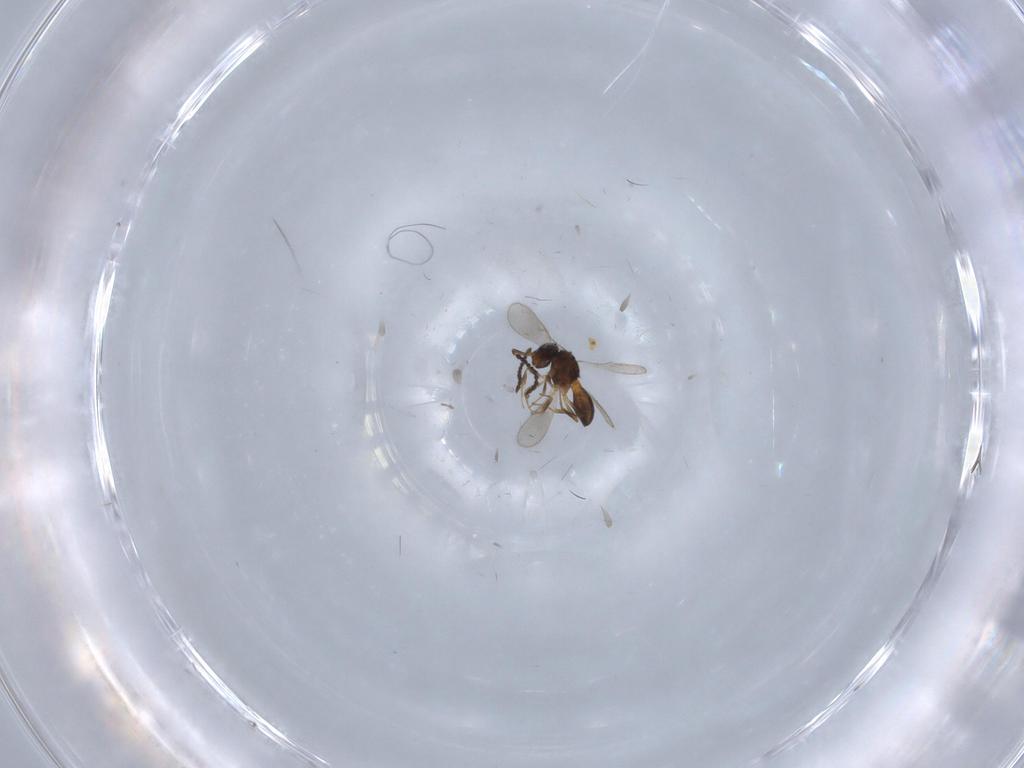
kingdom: Animalia
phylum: Arthropoda
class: Insecta
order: Hymenoptera
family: Scelionidae
